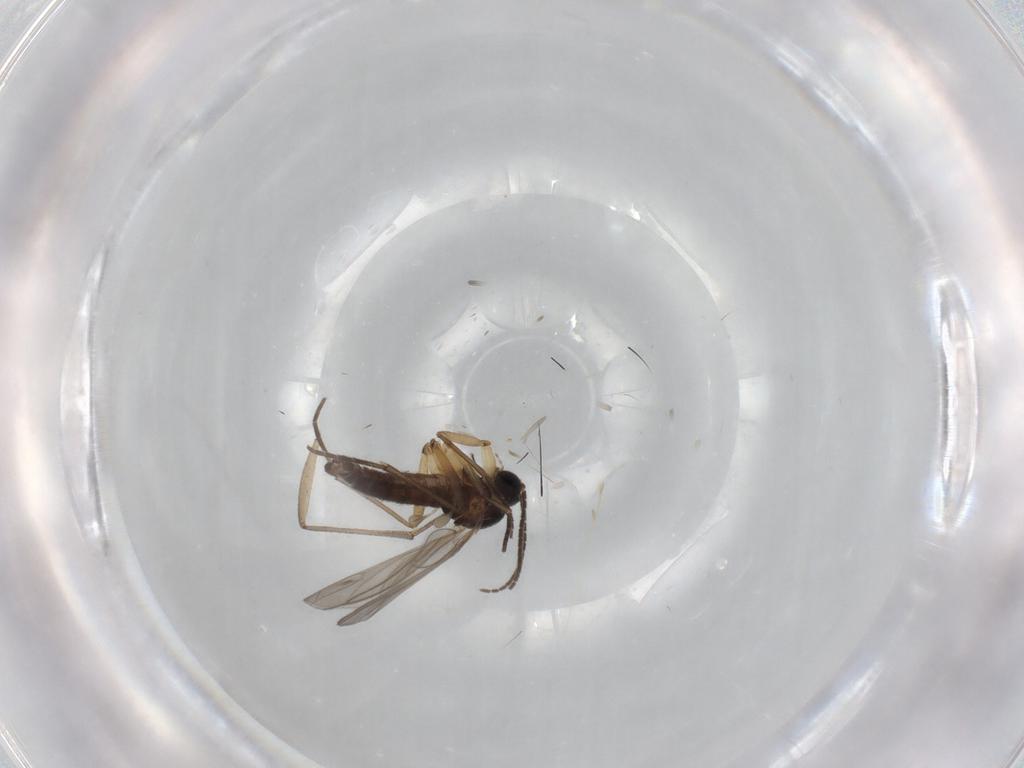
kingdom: Animalia
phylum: Arthropoda
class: Insecta
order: Diptera
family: Sciaridae
